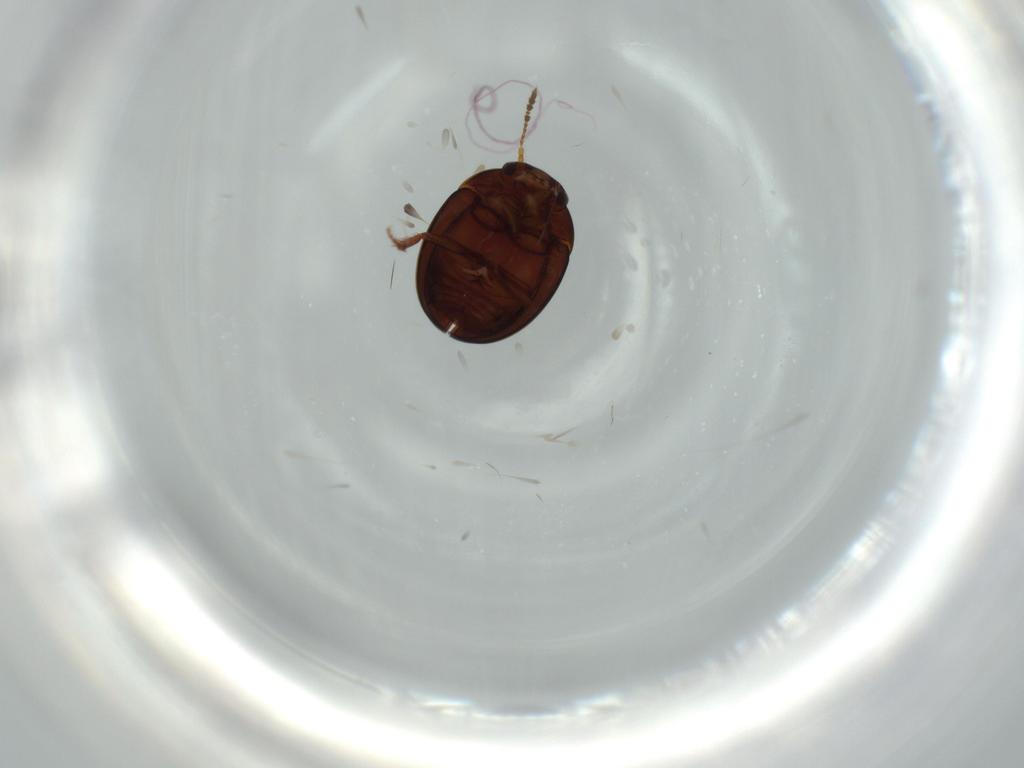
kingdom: Animalia
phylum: Arthropoda
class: Insecta
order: Coleoptera
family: Leiodidae
